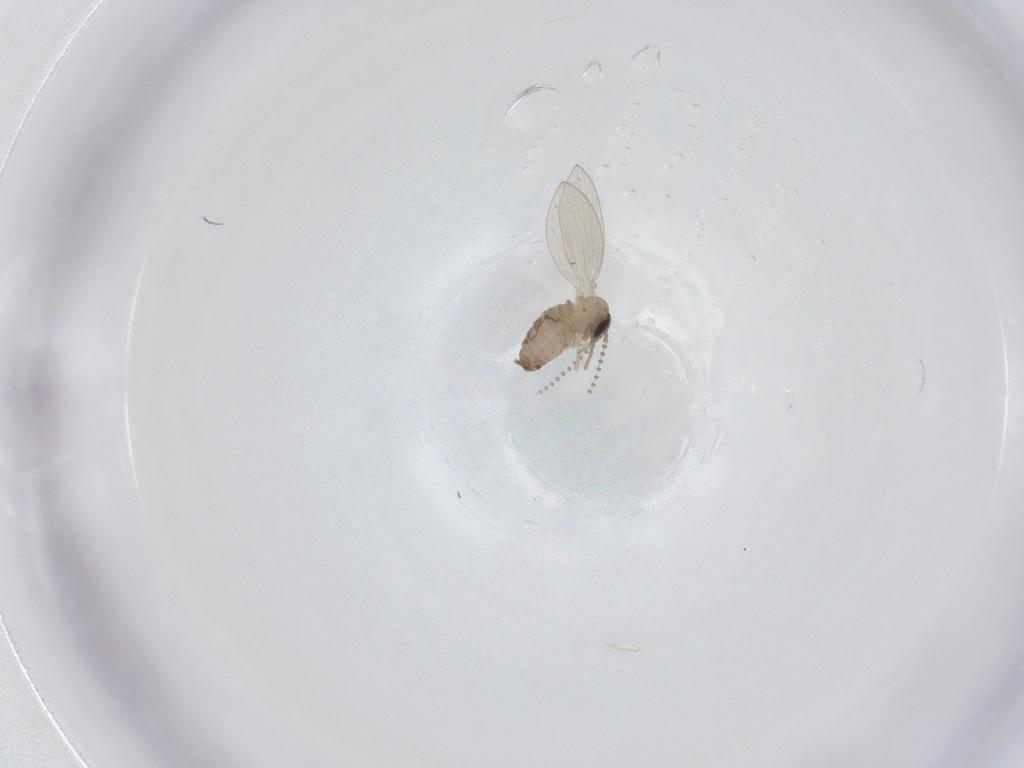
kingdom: Animalia
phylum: Arthropoda
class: Insecta
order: Diptera
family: Psychodidae
